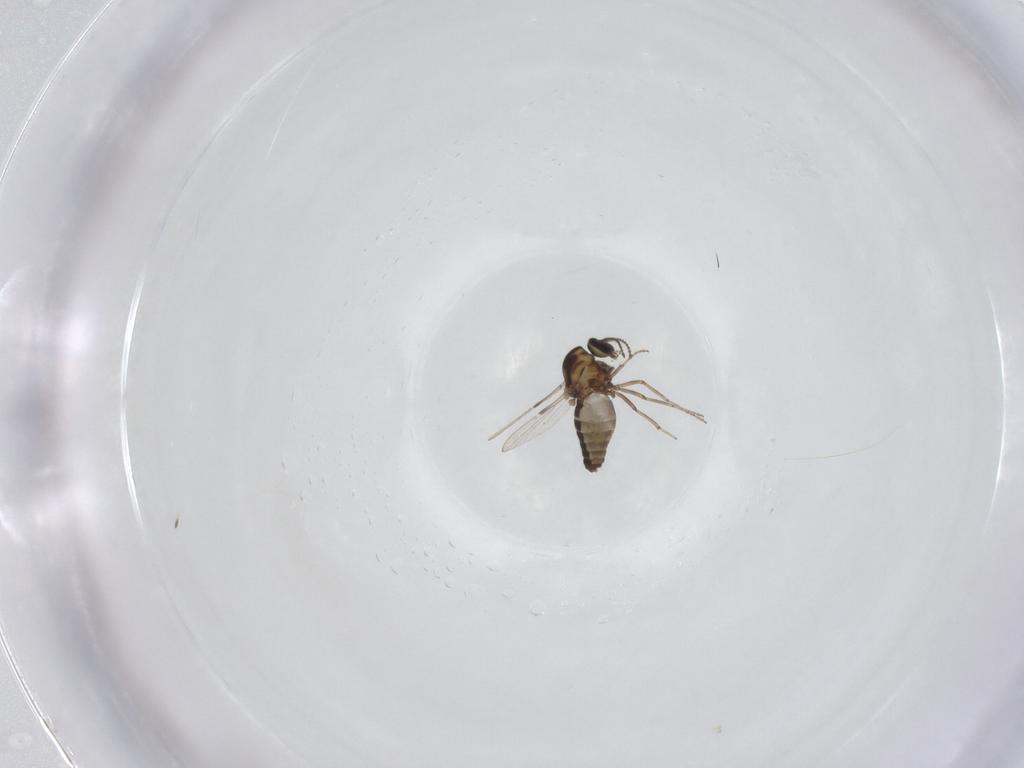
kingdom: Animalia
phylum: Arthropoda
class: Insecta
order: Diptera
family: Ceratopogonidae
